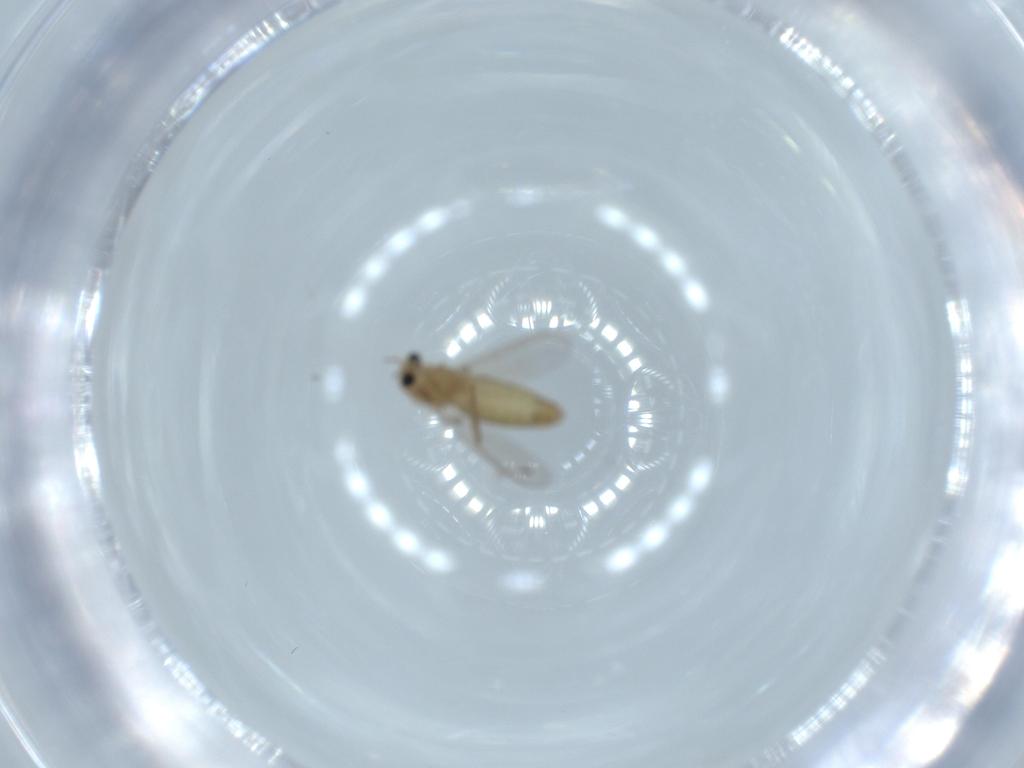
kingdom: Animalia
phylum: Arthropoda
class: Insecta
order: Diptera
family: Chironomidae
